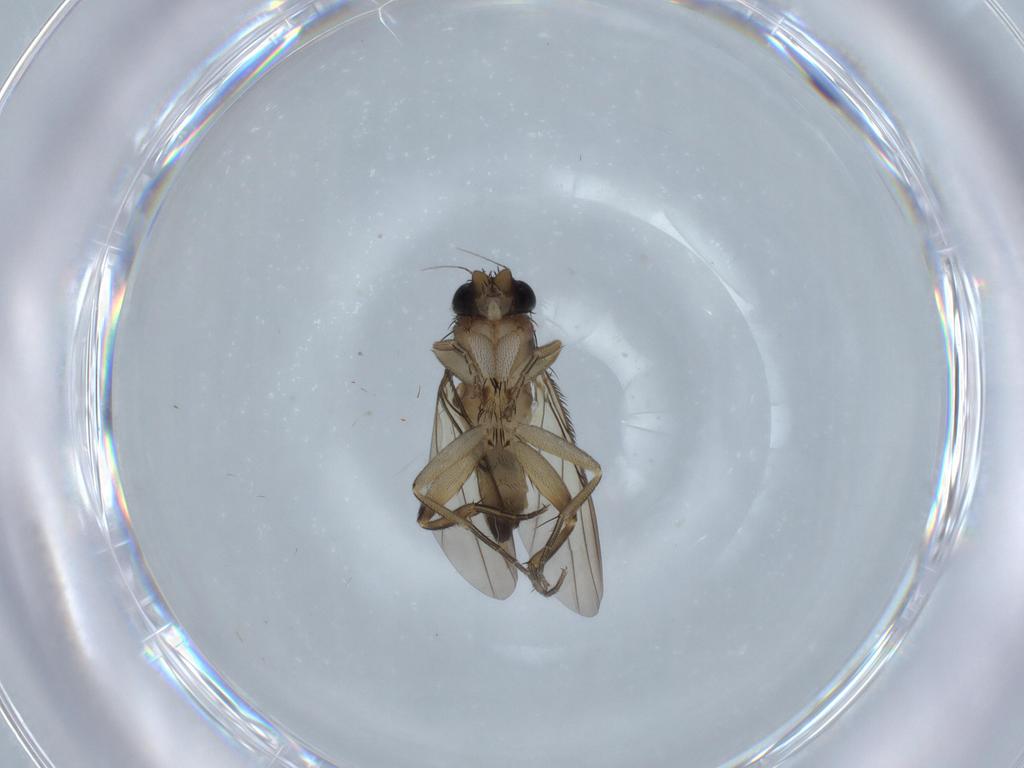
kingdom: Animalia
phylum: Arthropoda
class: Insecta
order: Diptera
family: Phoridae
